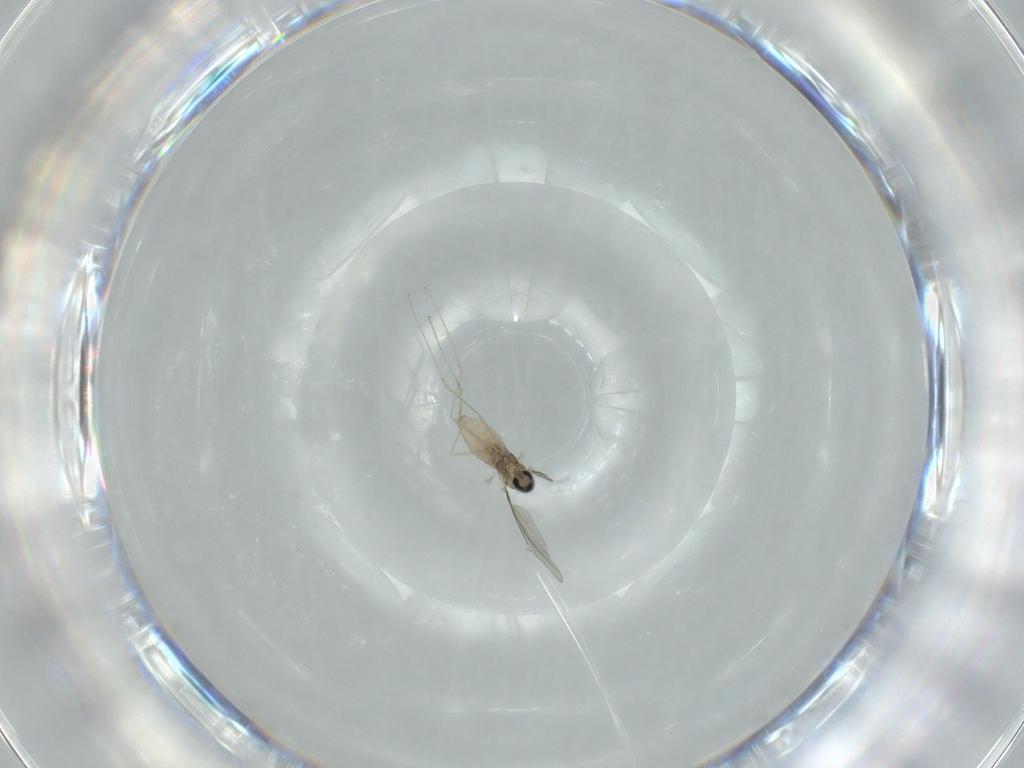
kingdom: Animalia
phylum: Arthropoda
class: Insecta
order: Diptera
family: Cecidomyiidae
